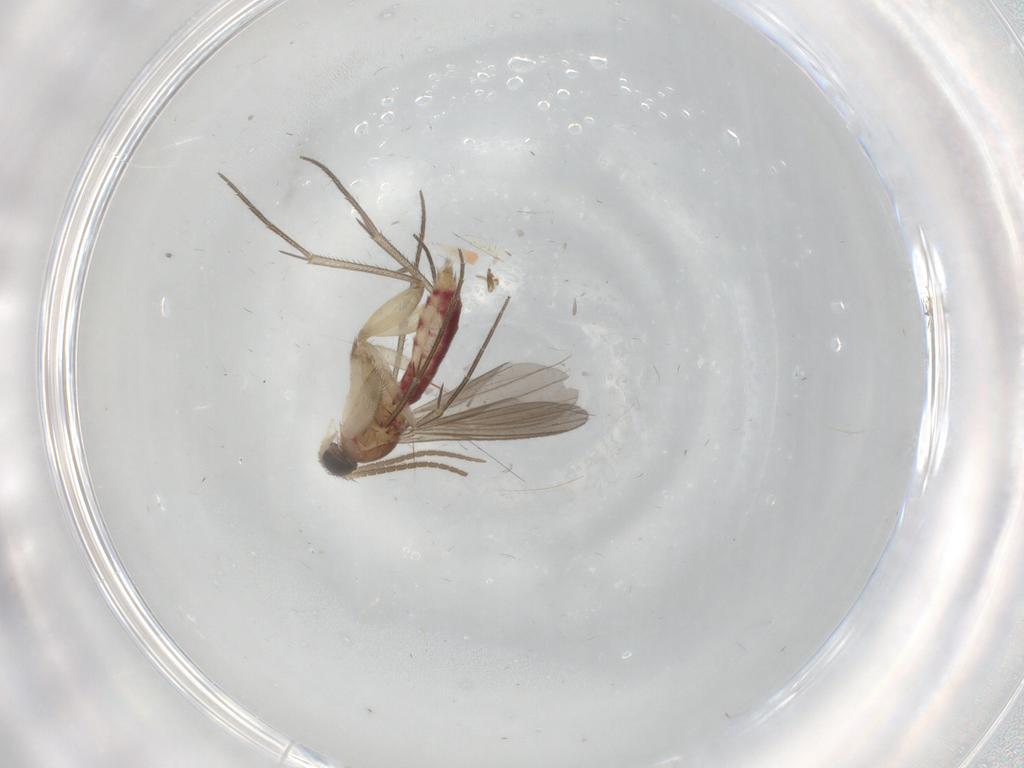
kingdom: Animalia
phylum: Arthropoda
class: Insecta
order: Diptera
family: Mycetophilidae
